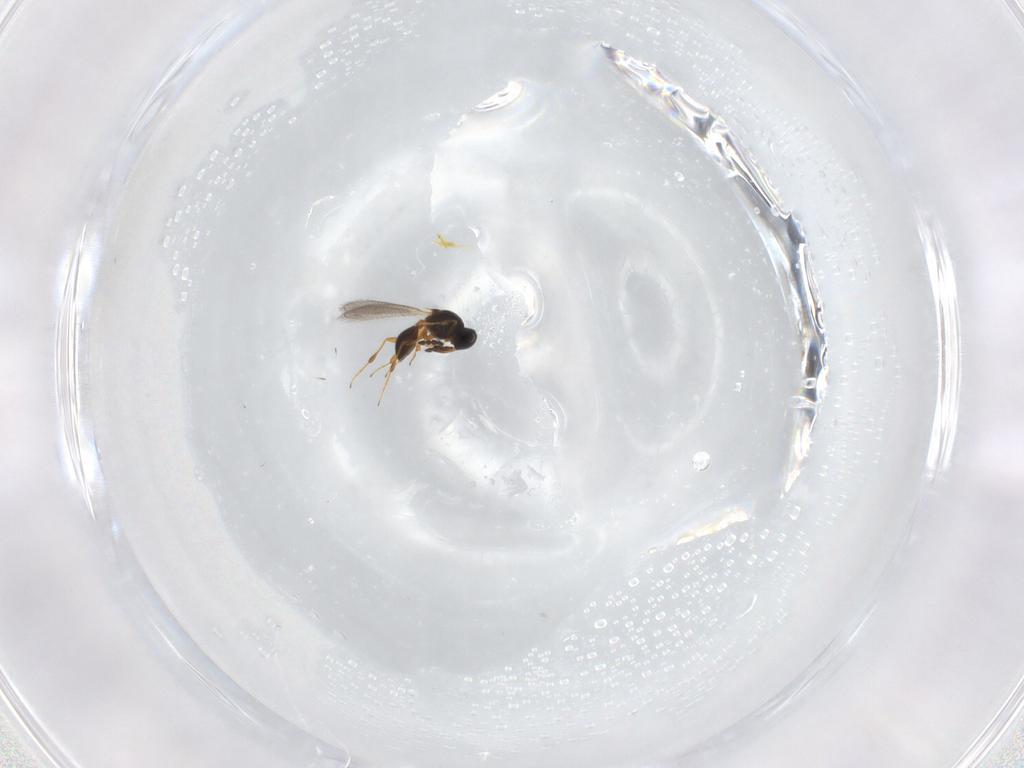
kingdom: Animalia
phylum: Arthropoda
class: Insecta
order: Hymenoptera
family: Platygastridae
